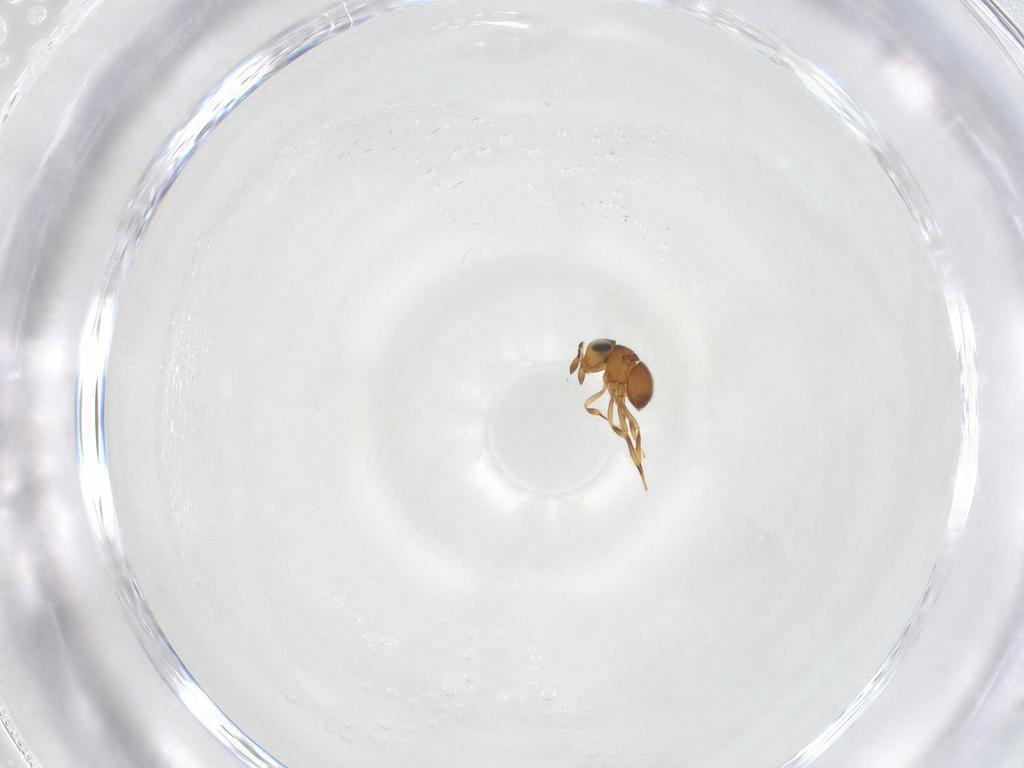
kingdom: Animalia
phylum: Arthropoda
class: Insecta
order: Hymenoptera
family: Scelionidae
